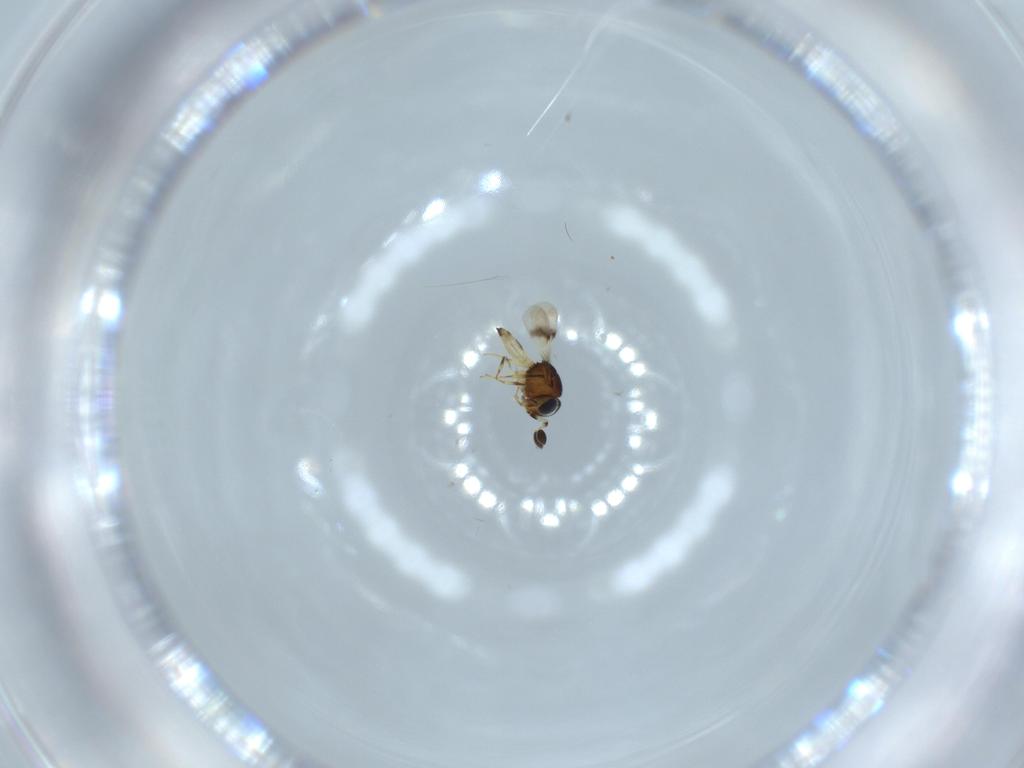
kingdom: Animalia
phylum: Arthropoda
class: Arachnida
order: Araneae
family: Pholcidae
